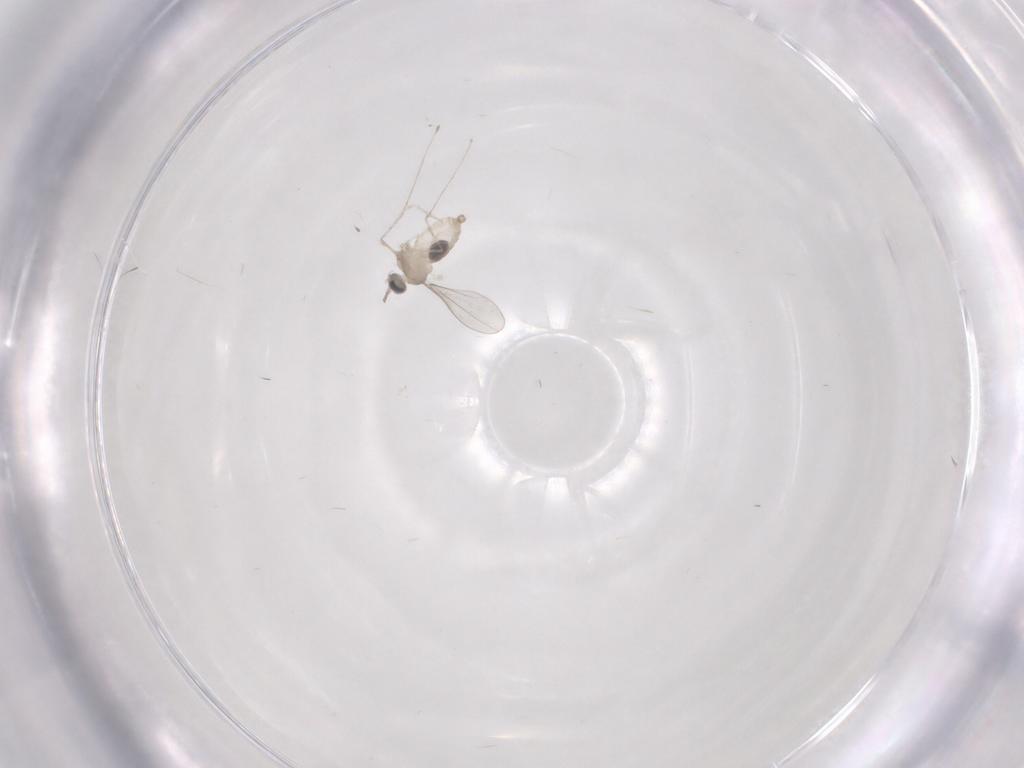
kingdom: Animalia
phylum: Arthropoda
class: Insecta
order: Diptera
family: Cecidomyiidae
